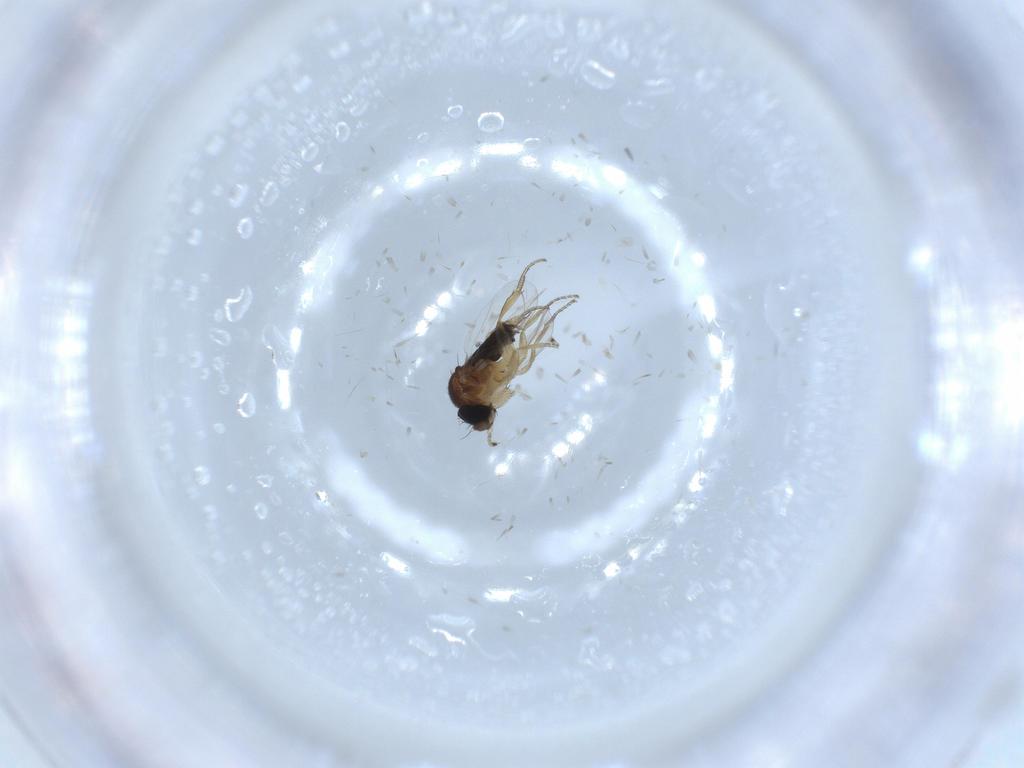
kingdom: Animalia
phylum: Arthropoda
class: Insecta
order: Diptera
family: Phoridae
